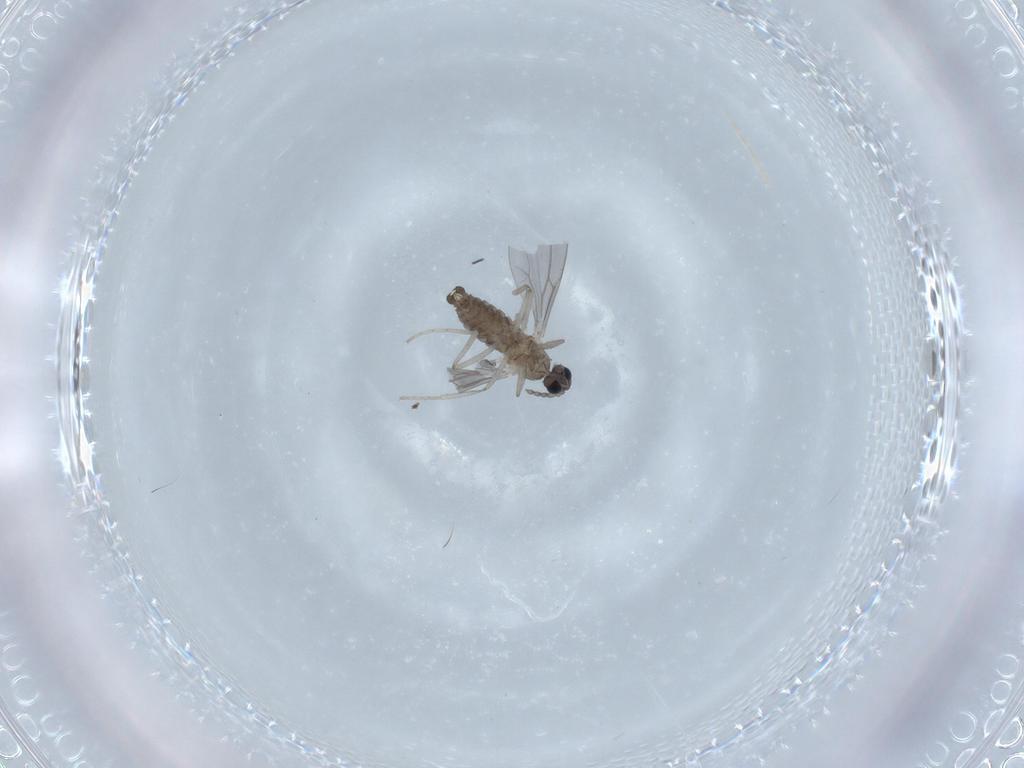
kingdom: Animalia
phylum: Arthropoda
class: Insecta
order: Diptera
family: Cecidomyiidae
